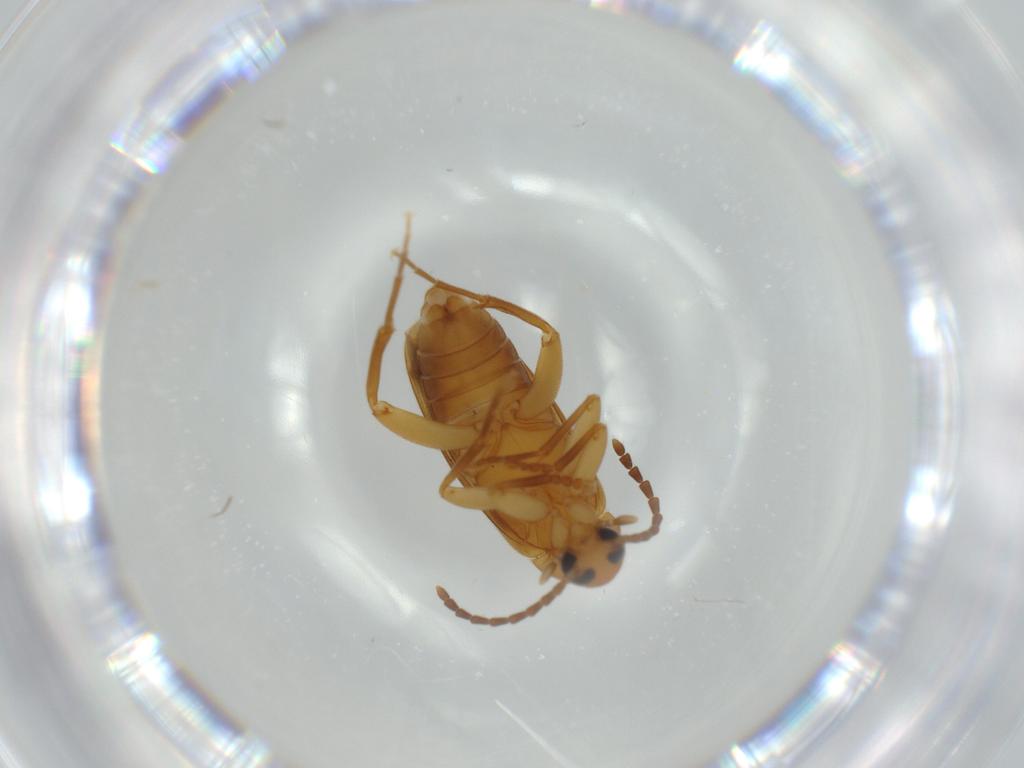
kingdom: Animalia
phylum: Arthropoda
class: Insecta
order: Coleoptera
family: Scraptiidae
